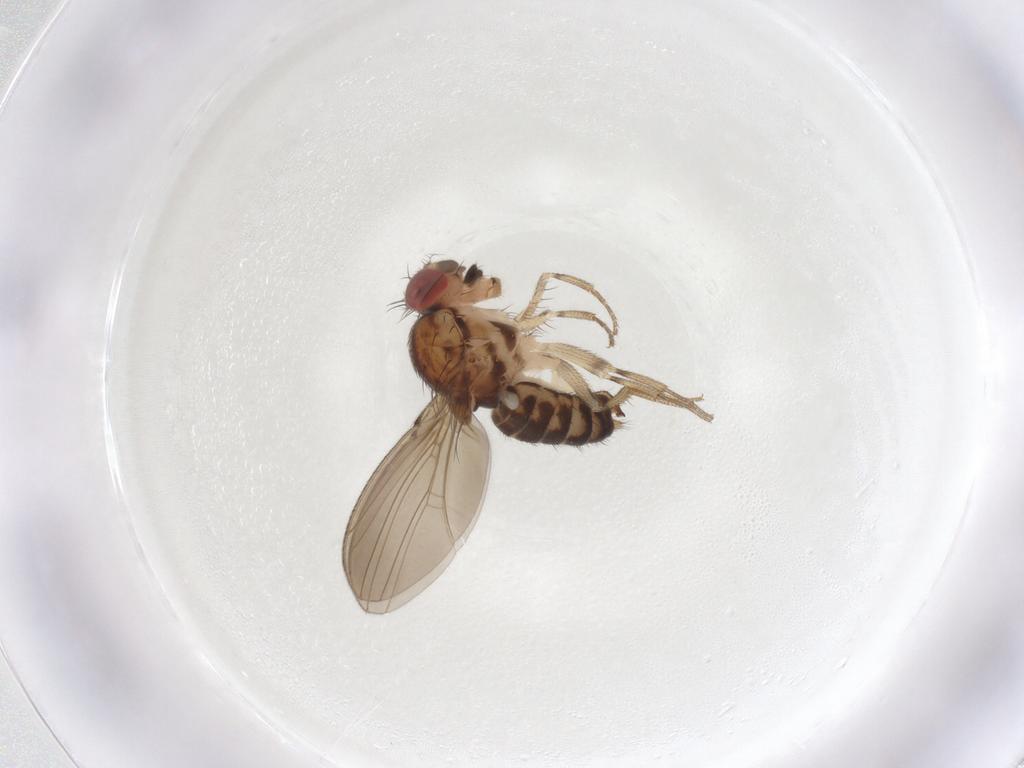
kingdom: Animalia
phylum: Arthropoda
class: Insecta
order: Diptera
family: Drosophilidae
